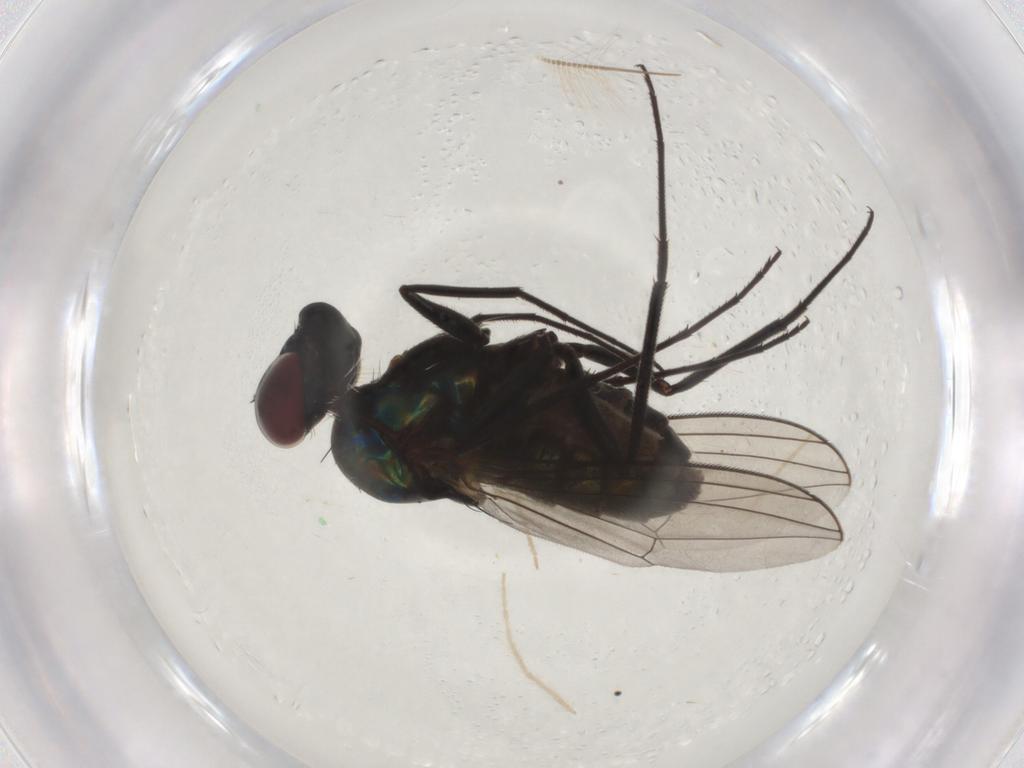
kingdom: Animalia
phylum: Arthropoda
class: Insecta
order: Diptera
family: Dolichopodidae
